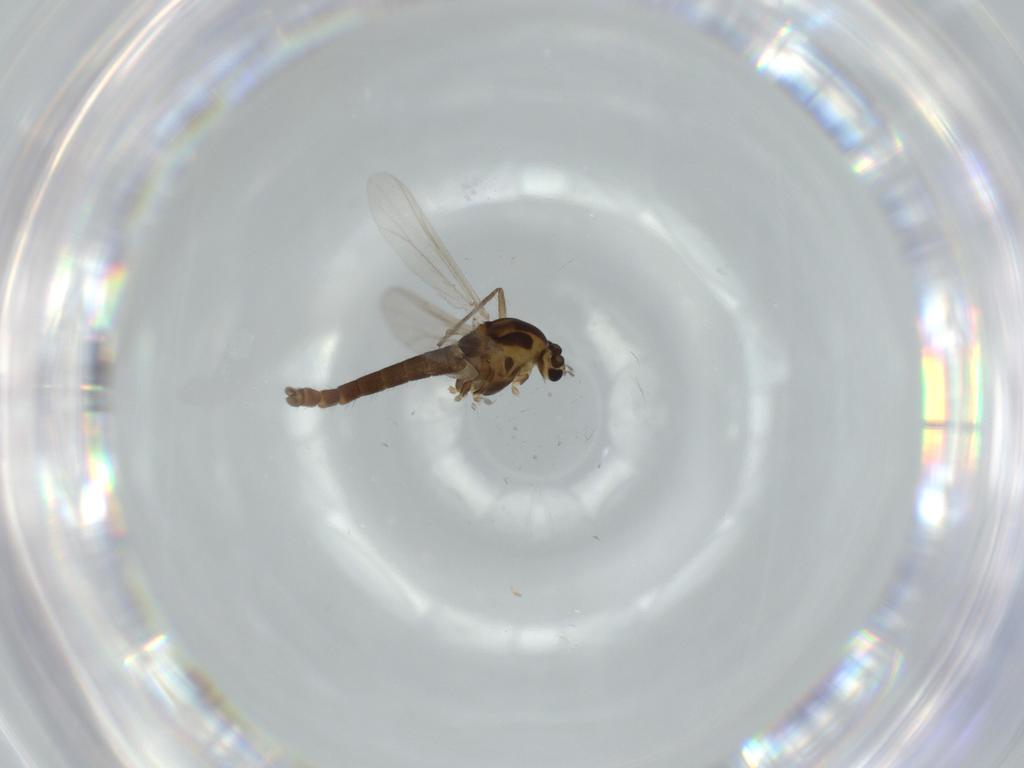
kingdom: Animalia
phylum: Arthropoda
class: Insecta
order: Diptera
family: Chironomidae
